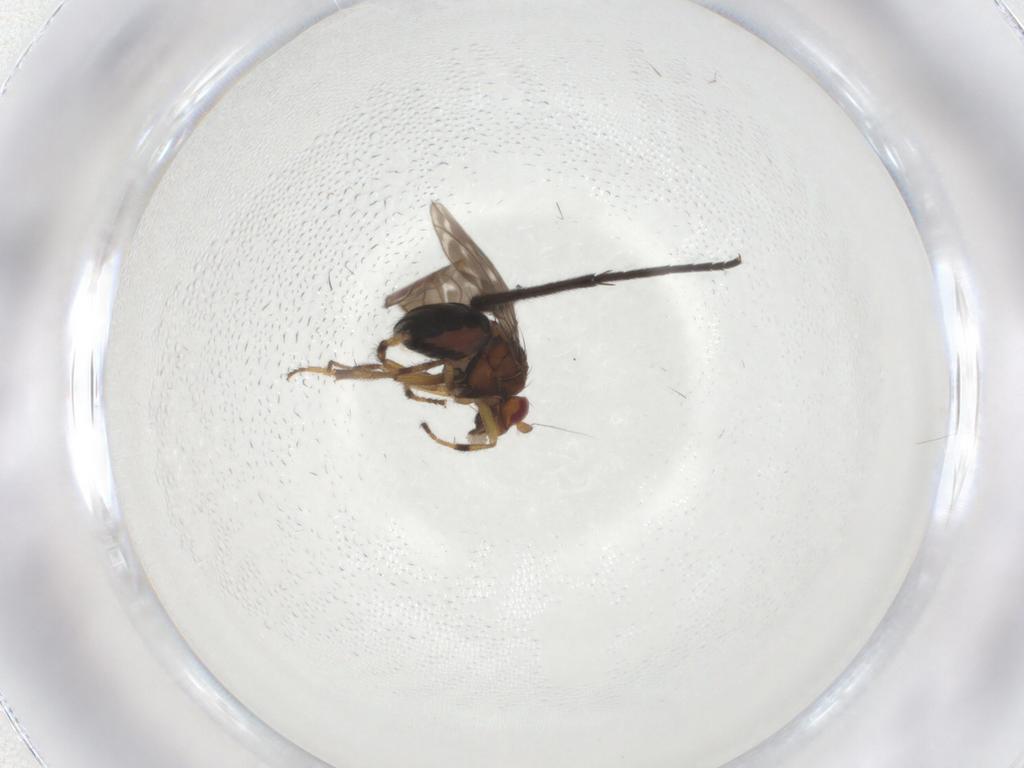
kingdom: Animalia
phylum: Arthropoda
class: Insecta
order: Diptera
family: Sphaeroceridae
